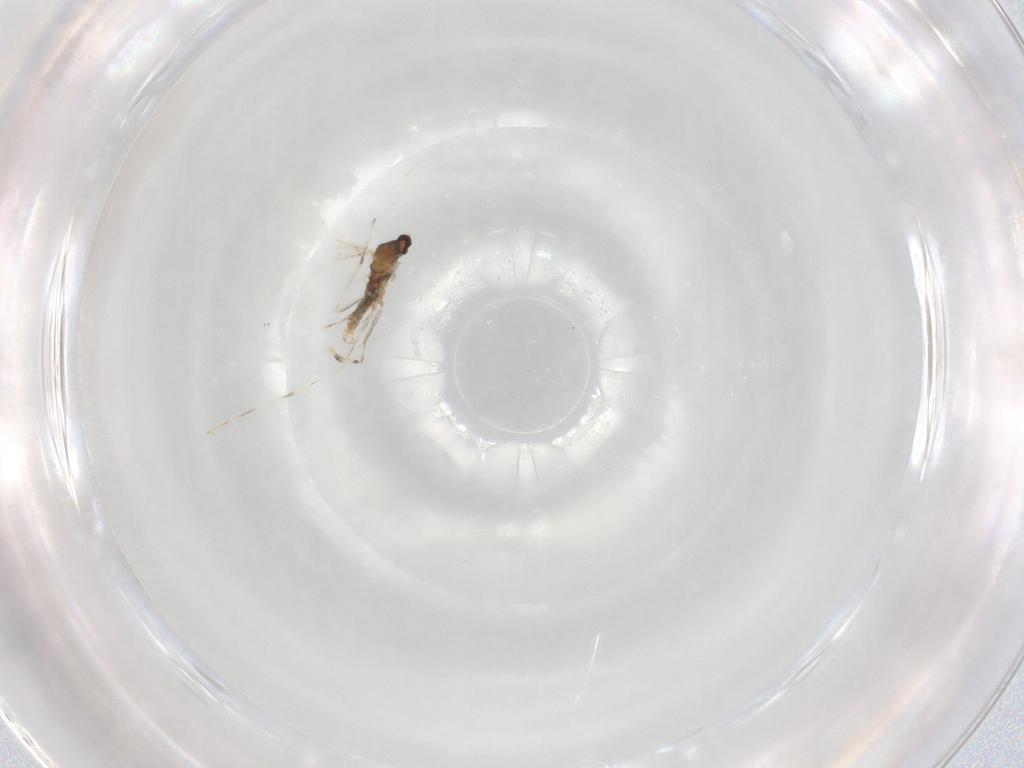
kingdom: Animalia
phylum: Arthropoda
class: Insecta
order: Diptera
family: Cecidomyiidae
